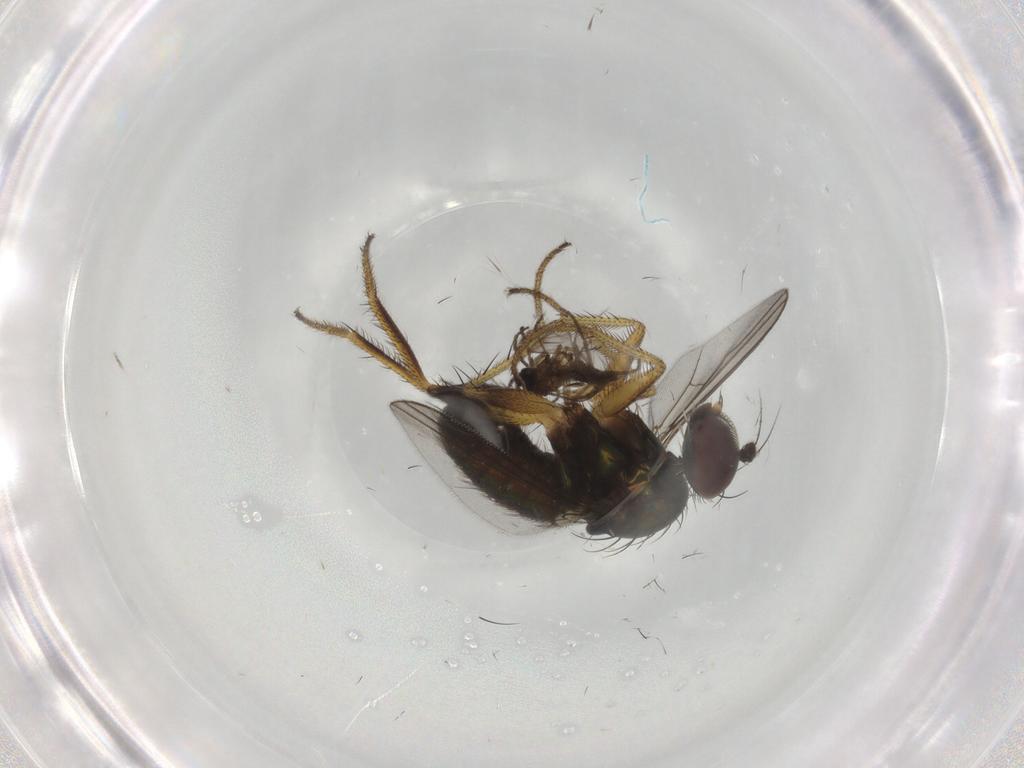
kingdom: Animalia
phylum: Arthropoda
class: Insecta
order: Diptera
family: Dolichopodidae
